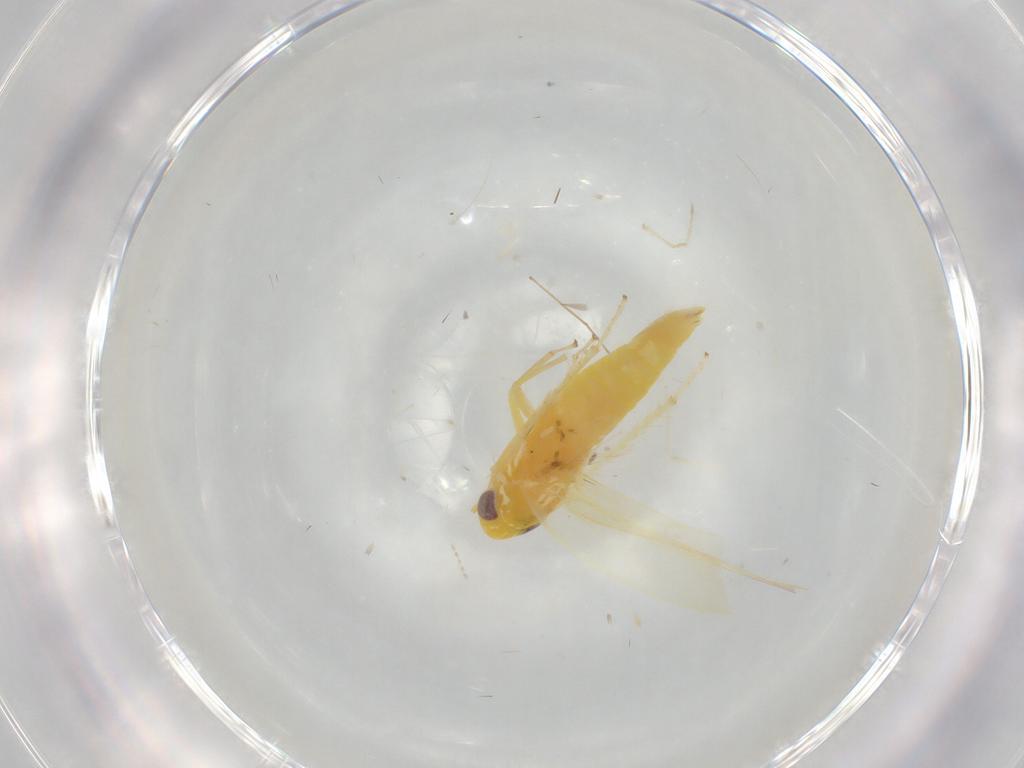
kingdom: Animalia
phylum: Arthropoda
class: Insecta
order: Hemiptera
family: Cicadellidae
